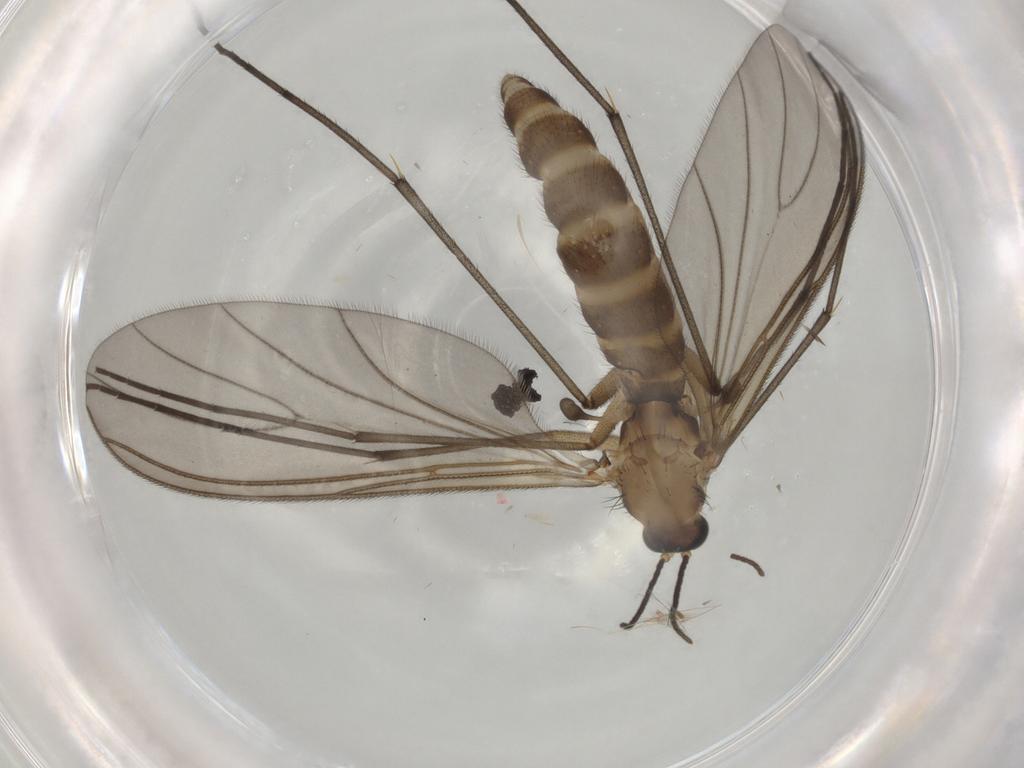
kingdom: Animalia
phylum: Arthropoda
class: Insecta
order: Diptera
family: Sciaridae
